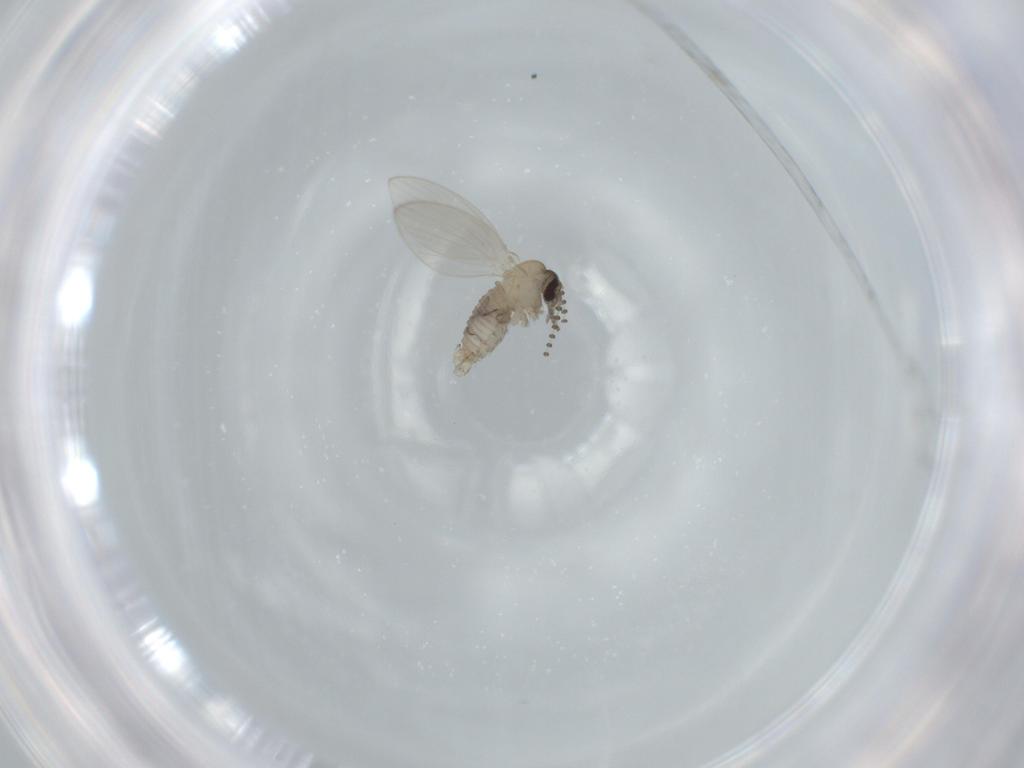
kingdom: Animalia
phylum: Arthropoda
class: Insecta
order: Diptera
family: Psychodidae
